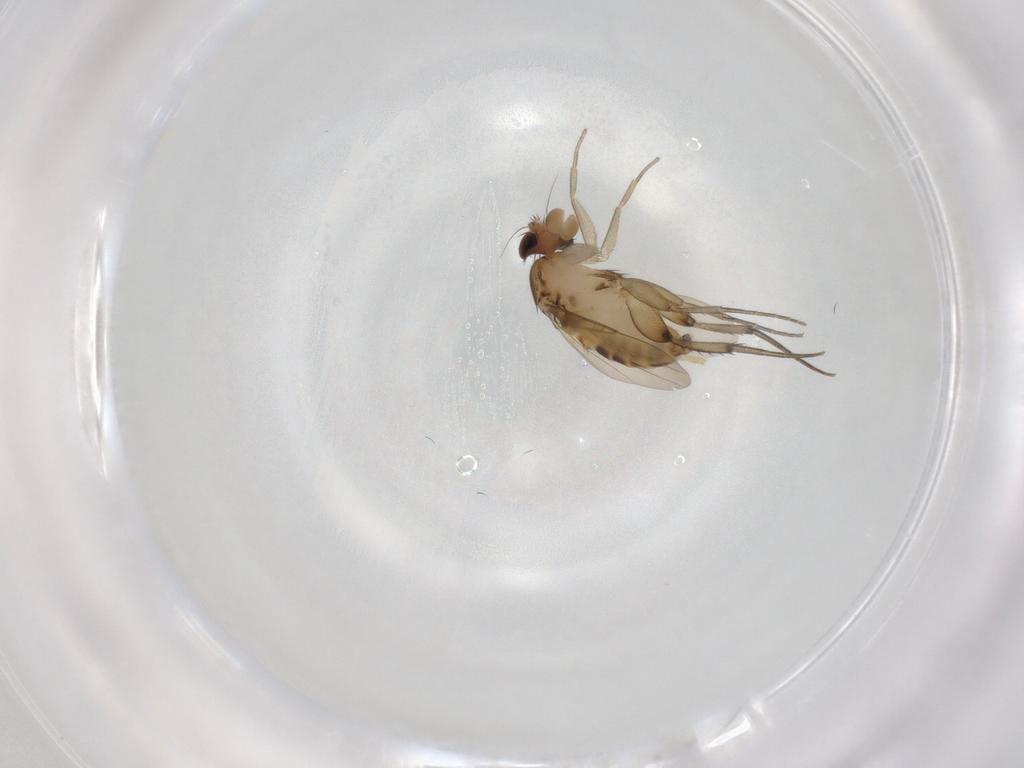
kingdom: Animalia
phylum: Arthropoda
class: Insecta
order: Diptera
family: Phoridae
